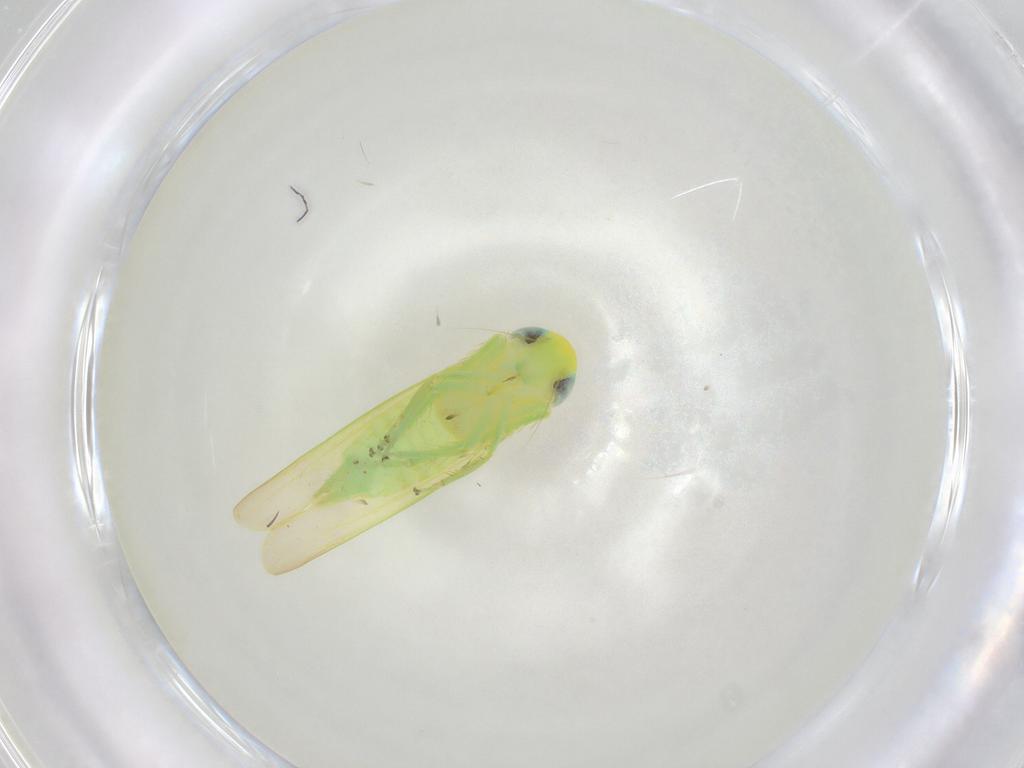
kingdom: Animalia
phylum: Arthropoda
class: Insecta
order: Hemiptera
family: Cicadellidae
